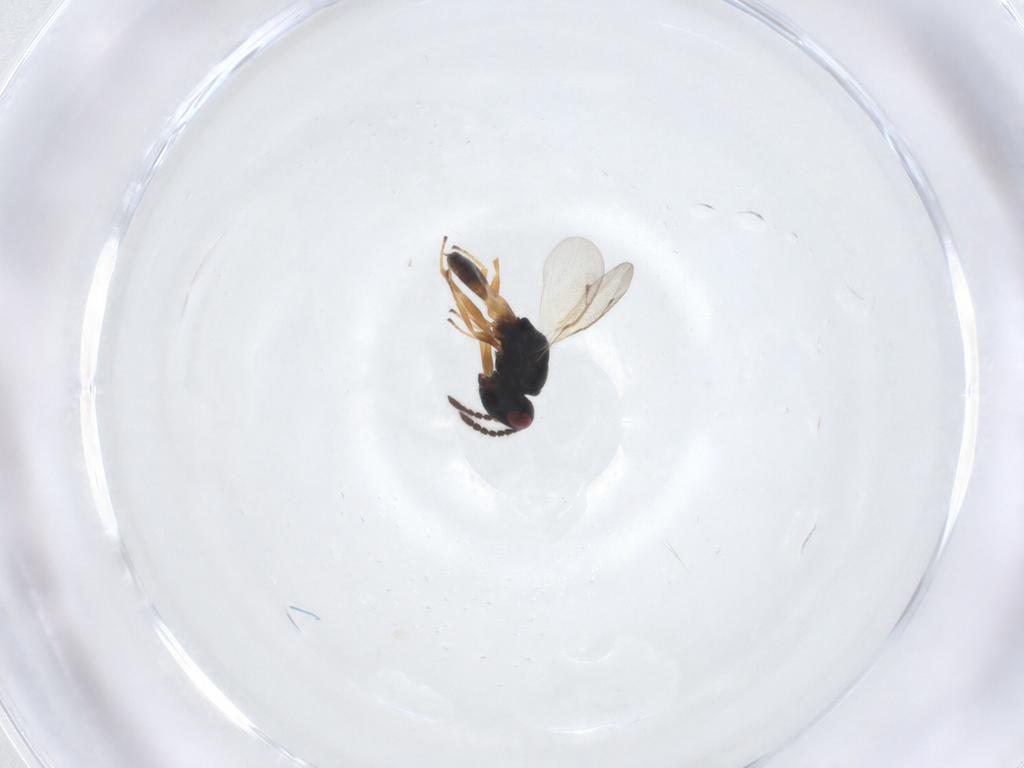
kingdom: Animalia
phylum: Arthropoda
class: Insecta
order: Hymenoptera
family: Pteromalidae
